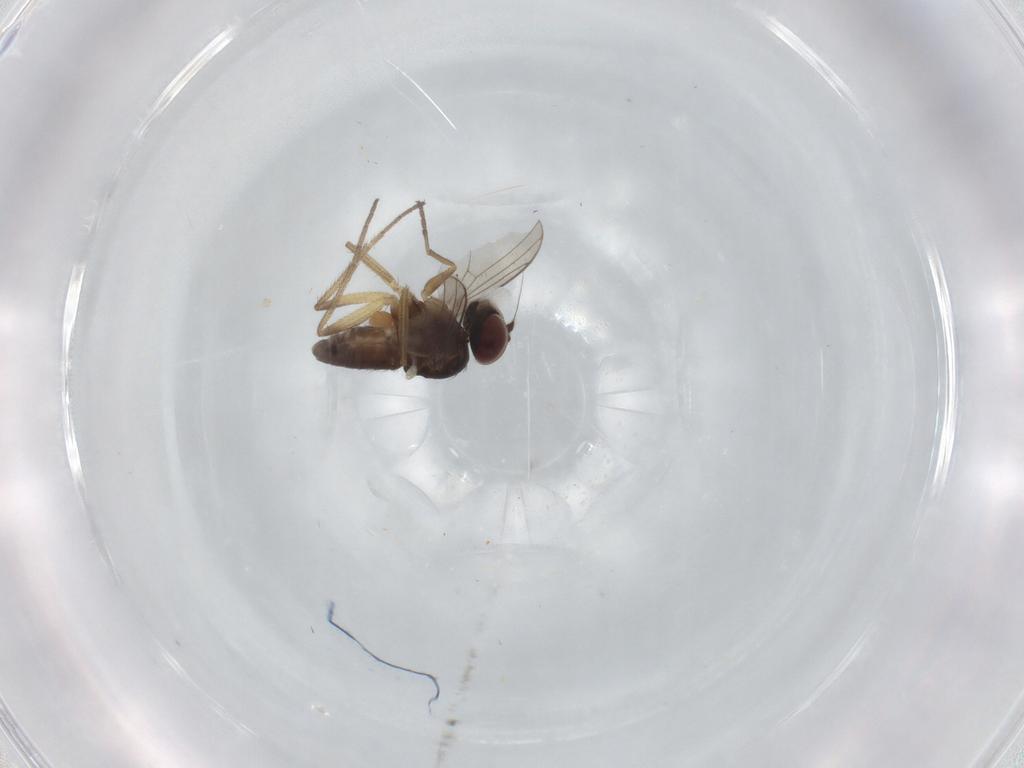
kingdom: Animalia
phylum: Arthropoda
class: Insecta
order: Diptera
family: Dolichopodidae
